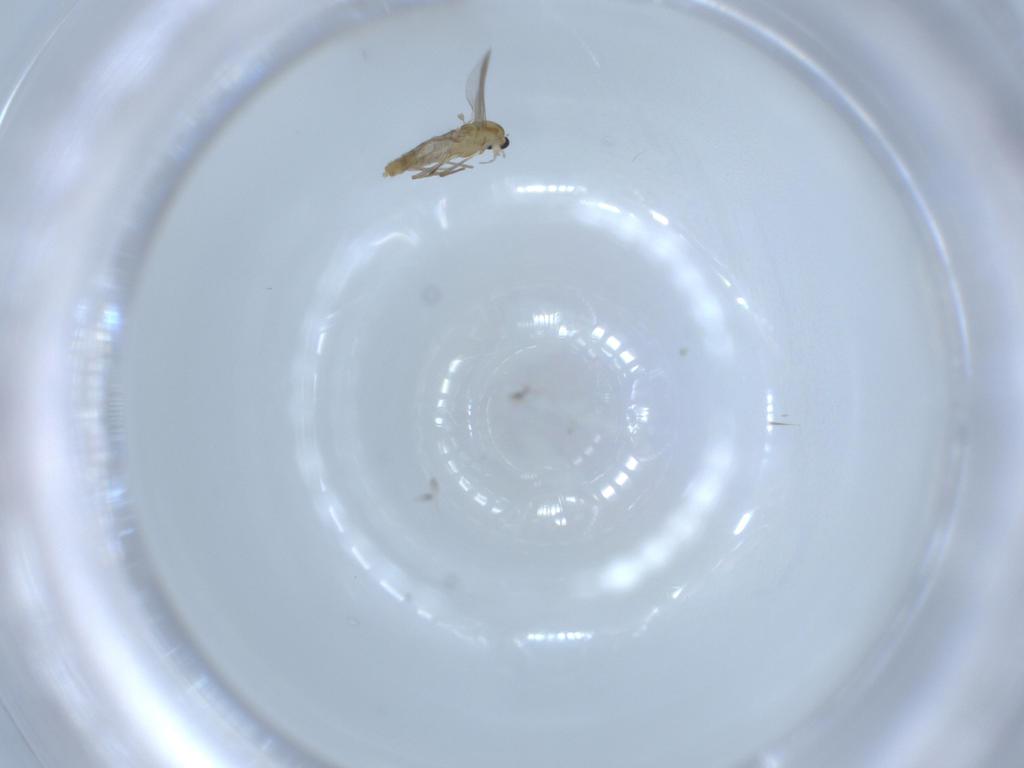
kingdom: Animalia
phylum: Arthropoda
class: Insecta
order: Diptera
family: Chironomidae
